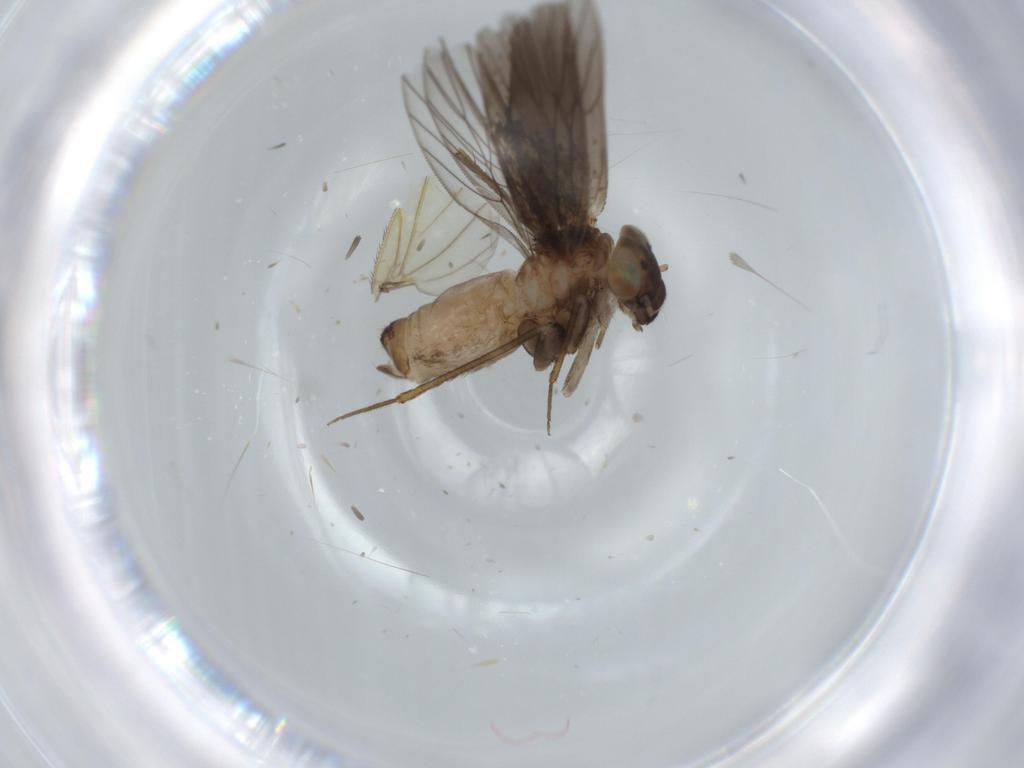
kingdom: Animalia
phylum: Arthropoda
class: Insecta
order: Psocodea
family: Lepidopsocidae
